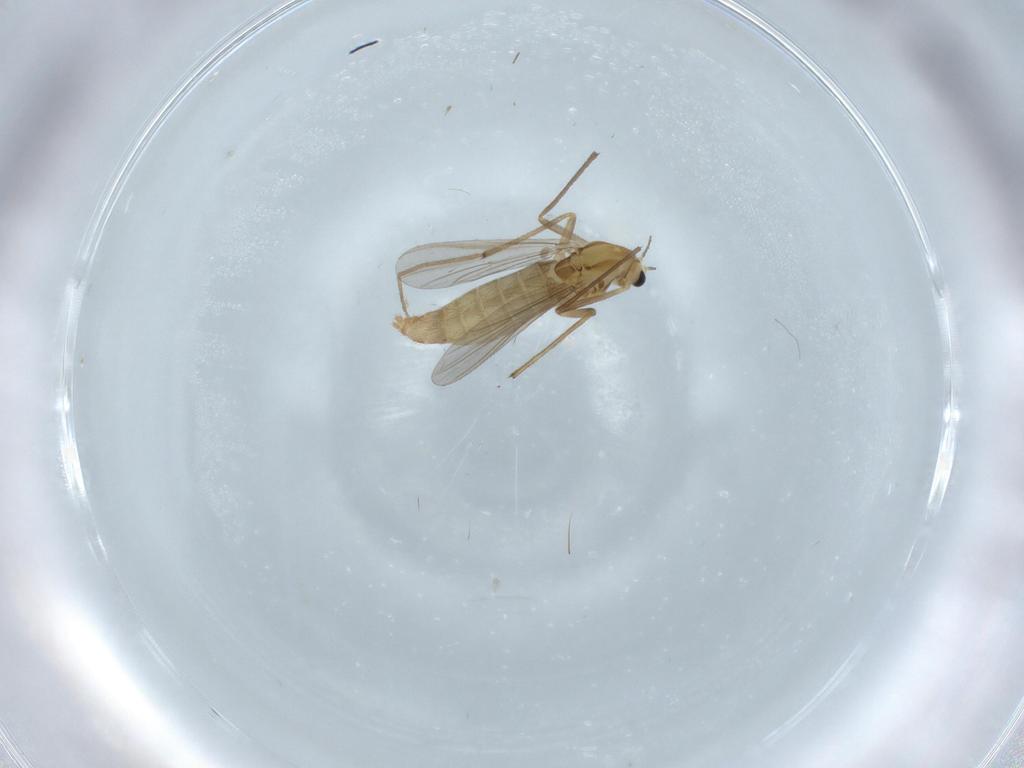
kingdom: Animalia
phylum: Arthropoda
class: Insecta
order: Diptera
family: Chironomidae
